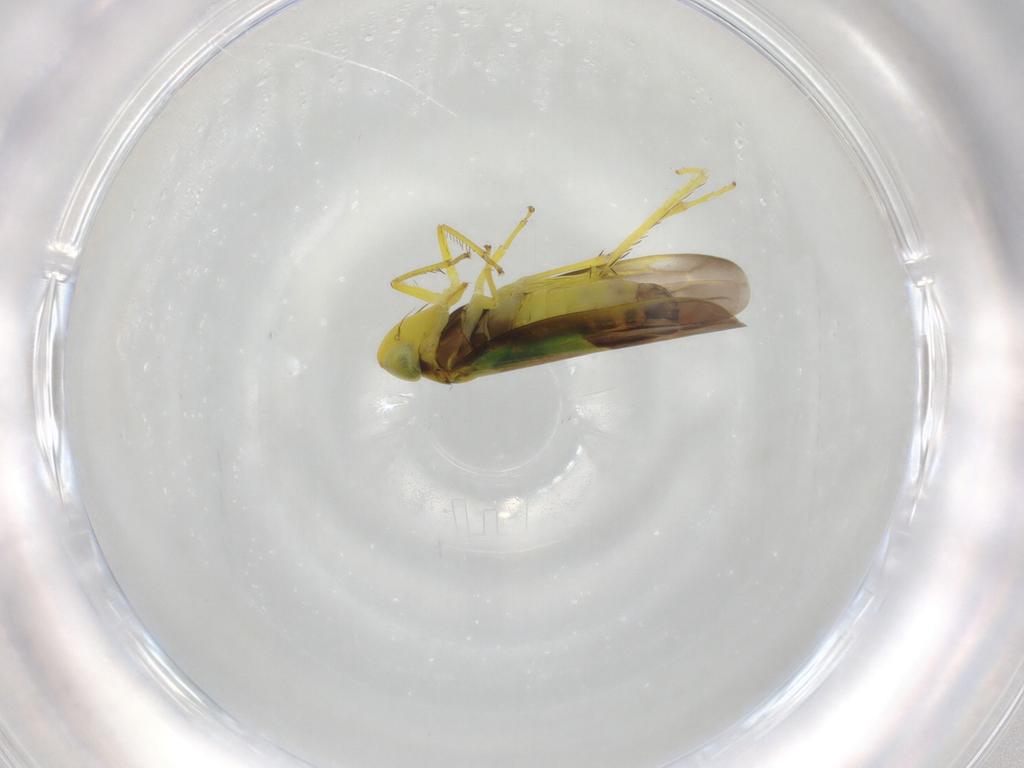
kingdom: Animalia
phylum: Arthropoda
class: Insecta
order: Hemiptera
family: Cicadellidae
